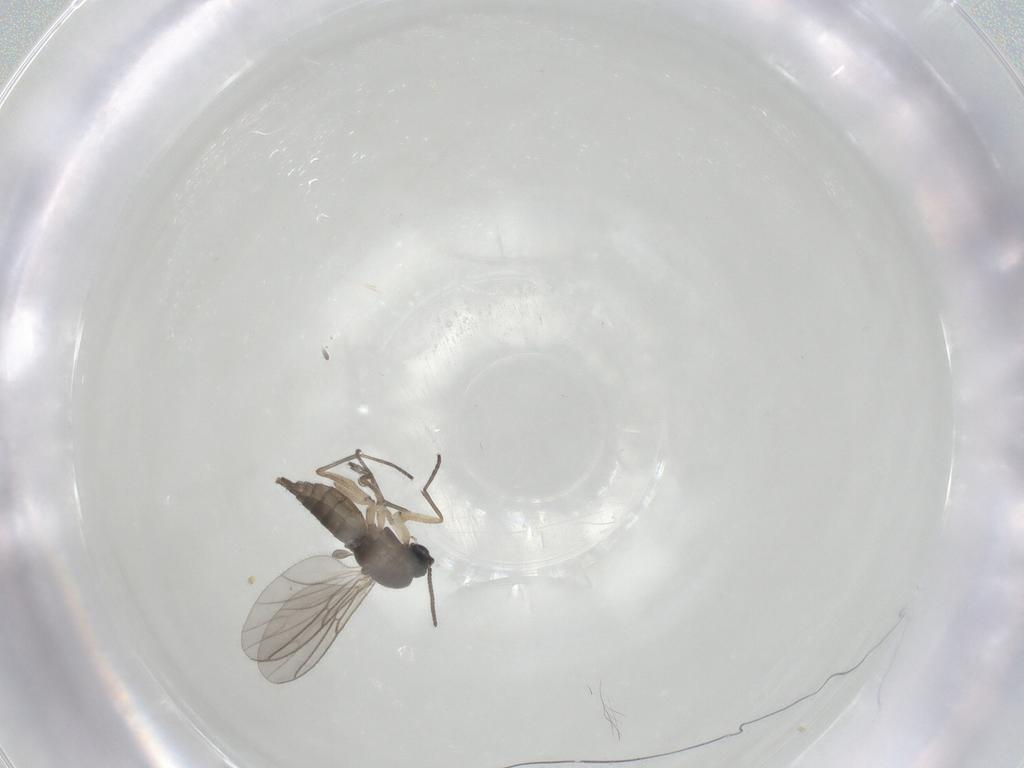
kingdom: Animalia
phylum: Arthropoda
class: Insecta
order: Diptera
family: Sciaridae
